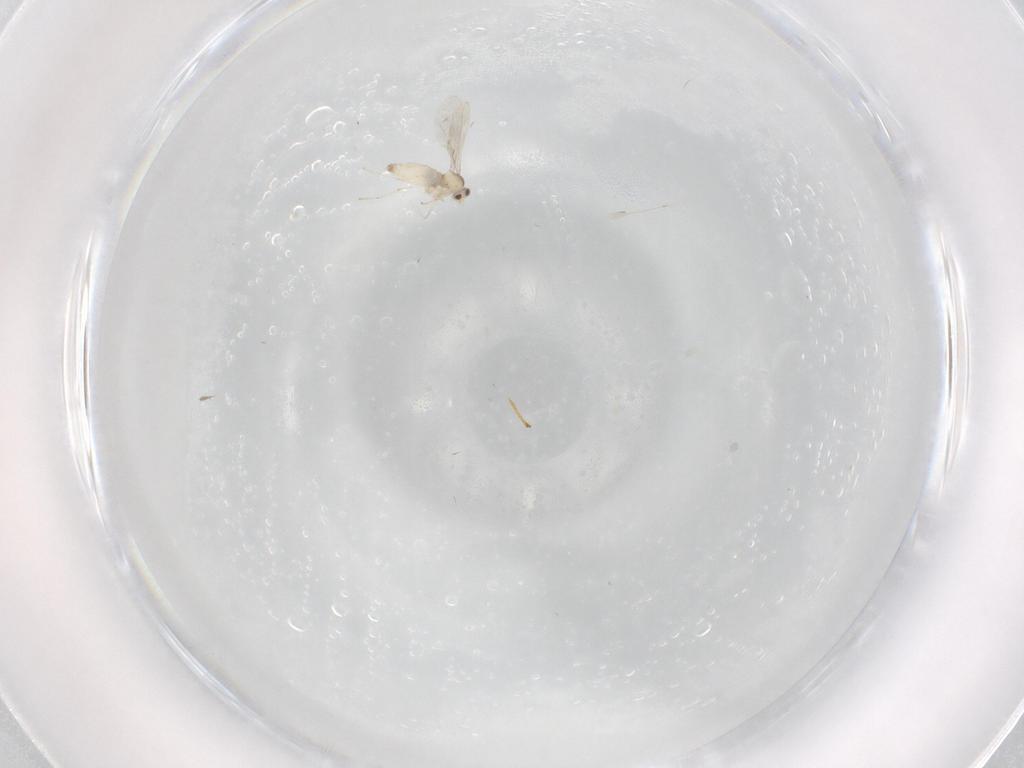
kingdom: Animalia
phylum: Arthropoda
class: Insecta
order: Diptera
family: Cecidomyiidae
